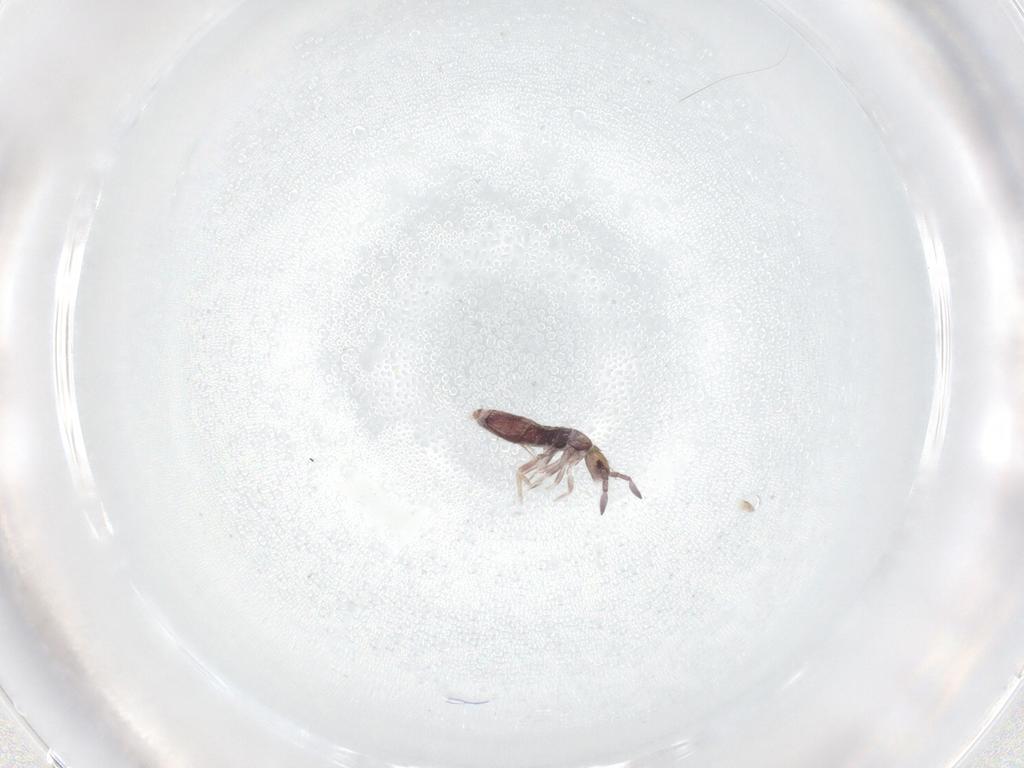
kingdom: Animalia
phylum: Arthropoda
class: Collembola
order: Entomobryomorpha
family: Entomobryidae
